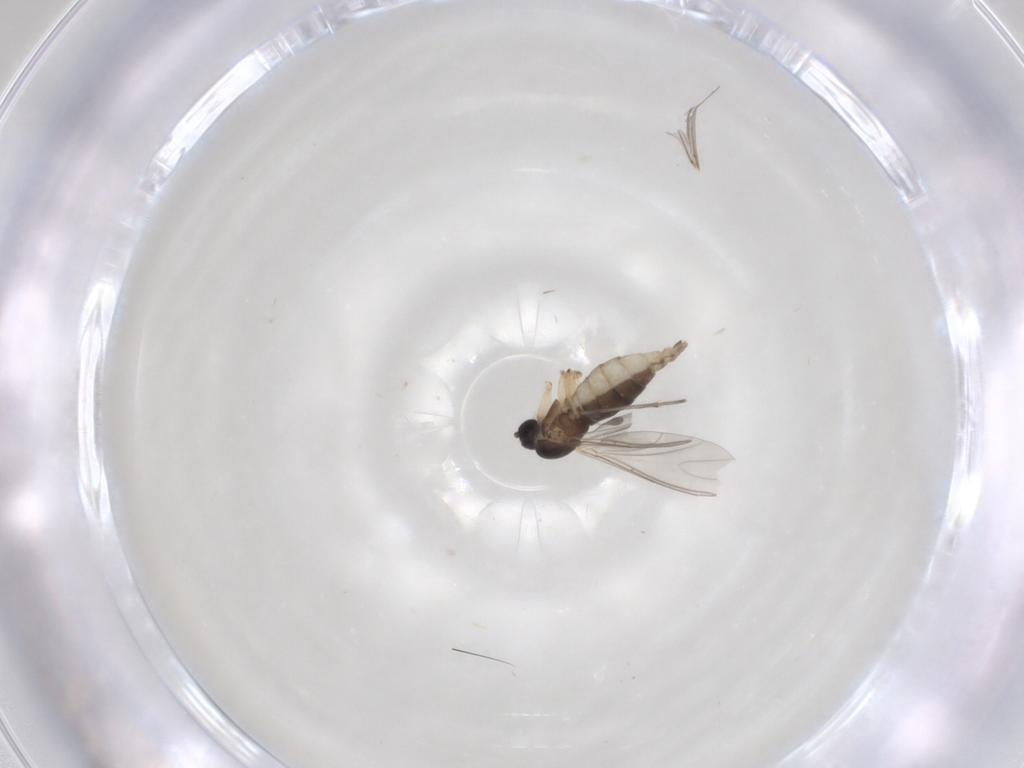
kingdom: Animalia
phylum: Arthropoda
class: Insecta
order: Diptera
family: Sciaridae
